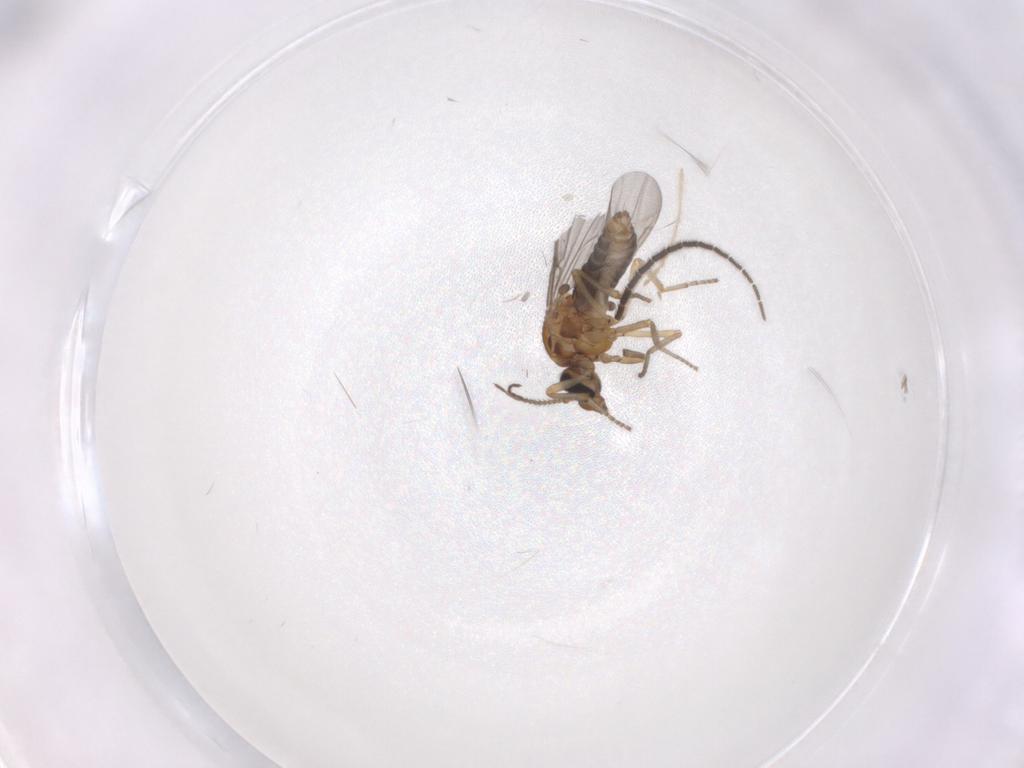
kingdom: Animalia
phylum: Arthropoda
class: Insecta
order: Diptera
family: Ceratopogonidae
